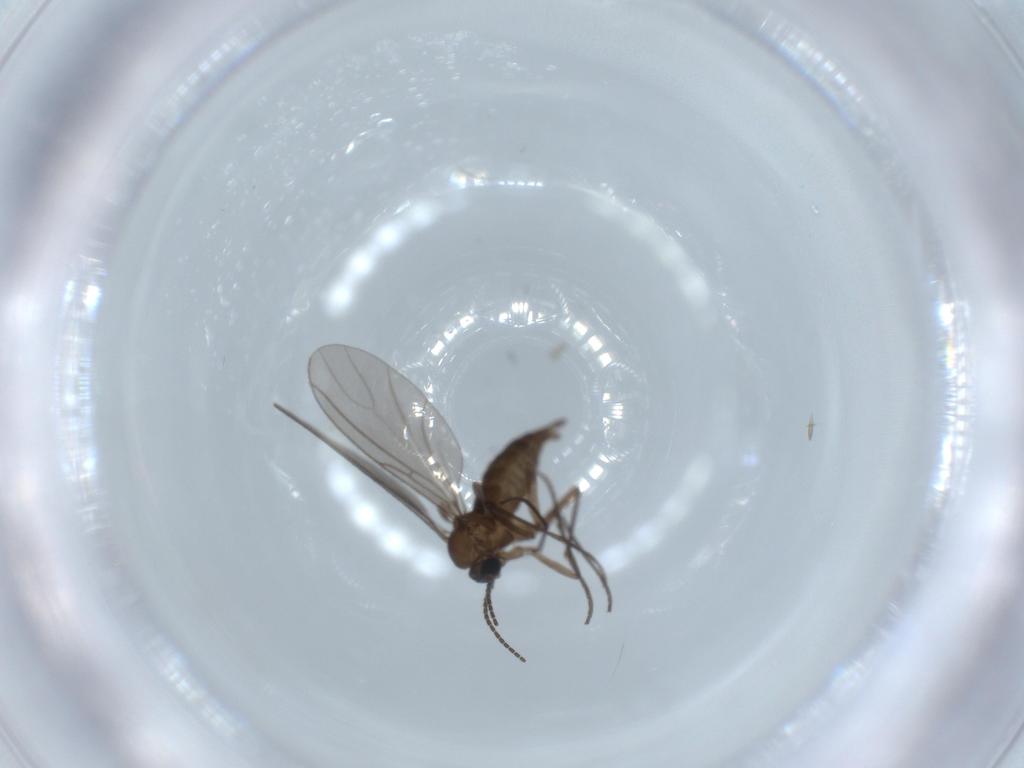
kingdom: Animalia
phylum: Arthropoda
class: Insecta
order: Diptera
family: Sciaridae
